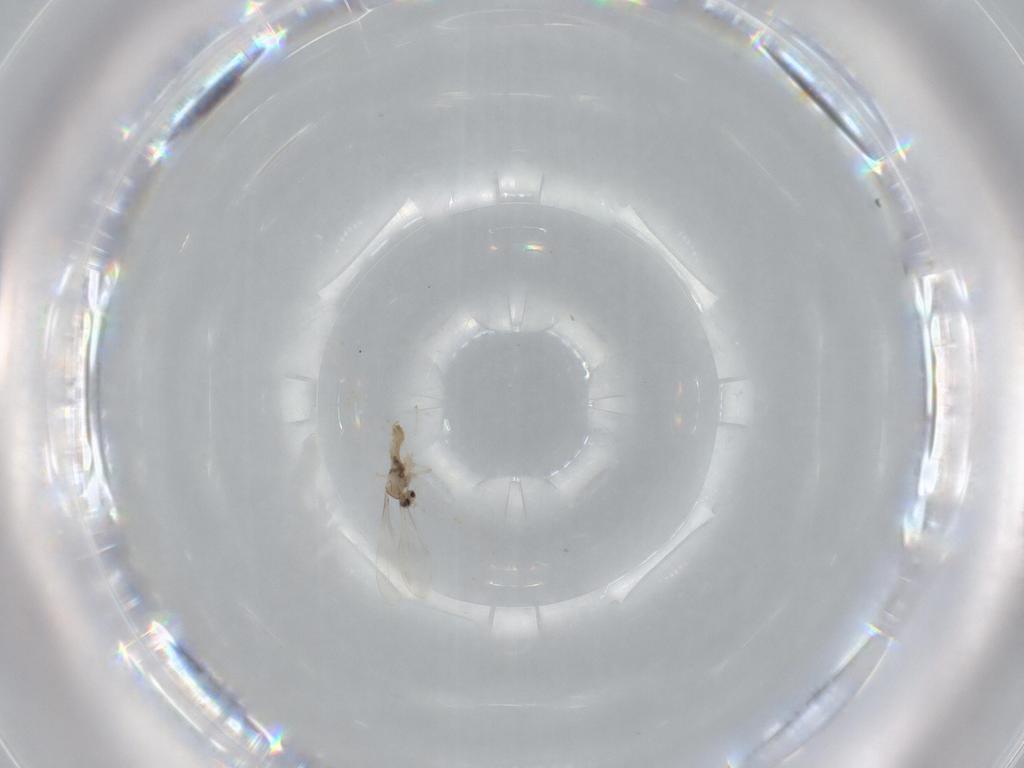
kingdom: Animalia
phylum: Arthropoda
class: Insecta
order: Diptera
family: Cecidomyiidae
